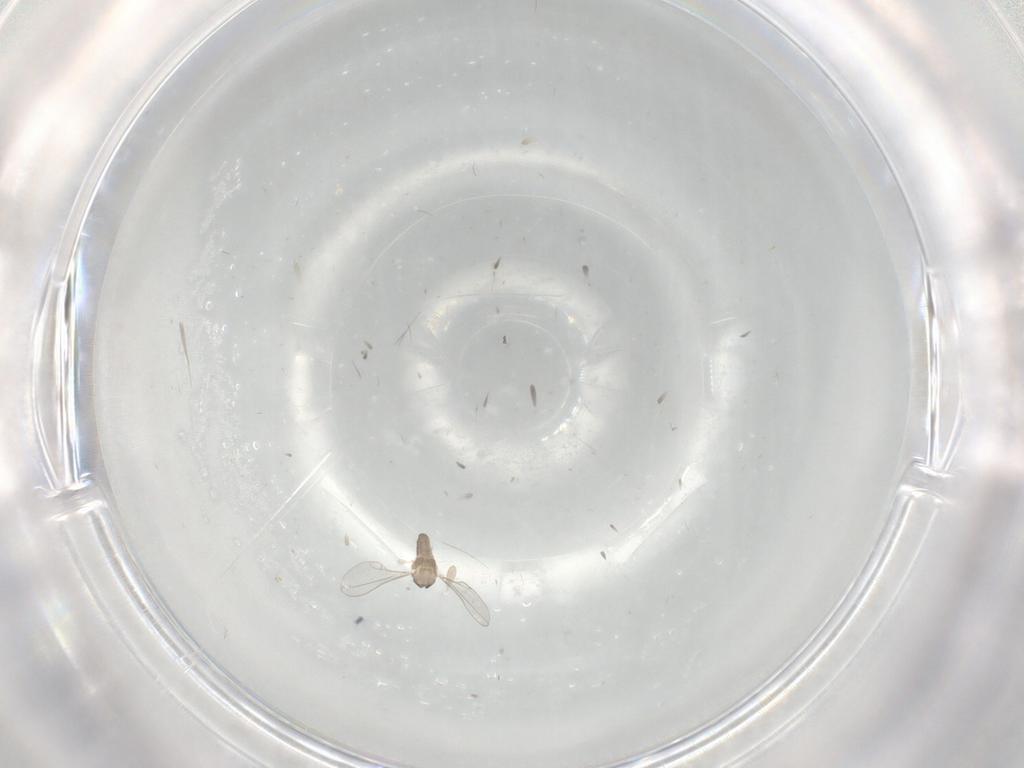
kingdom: Animalia
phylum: Arthropoda
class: Insecta
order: Diptera
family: Cecidomyiidae
